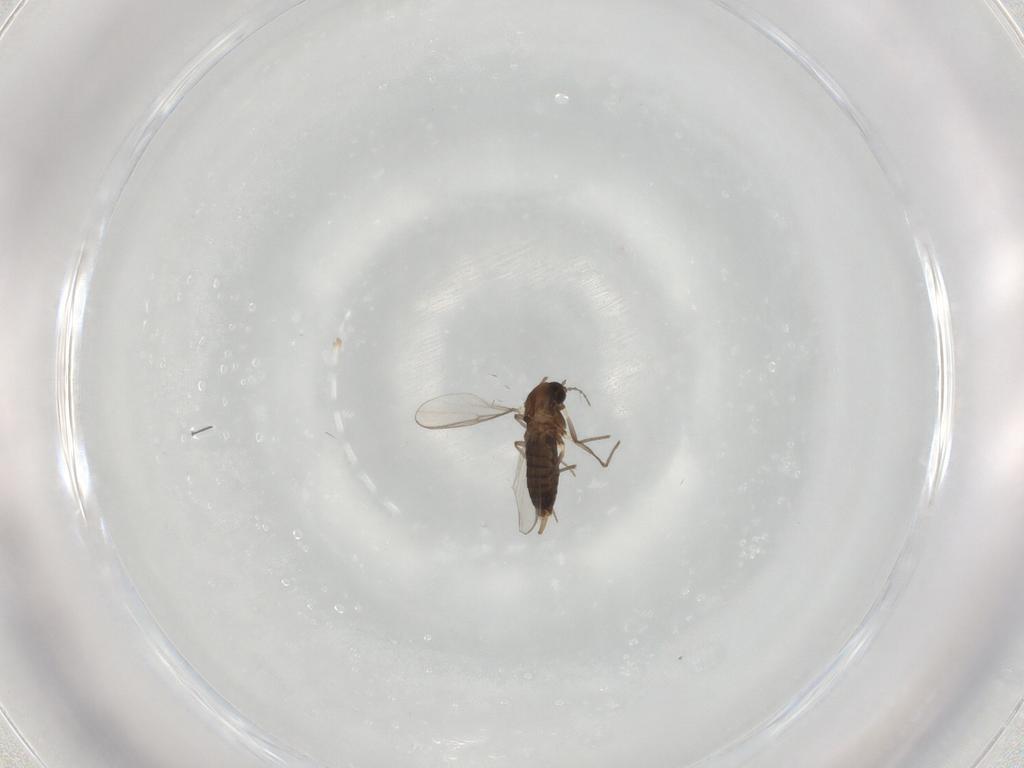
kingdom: Animalia
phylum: Arthropoda
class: Insecta
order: Diptera
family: Chironomidae
